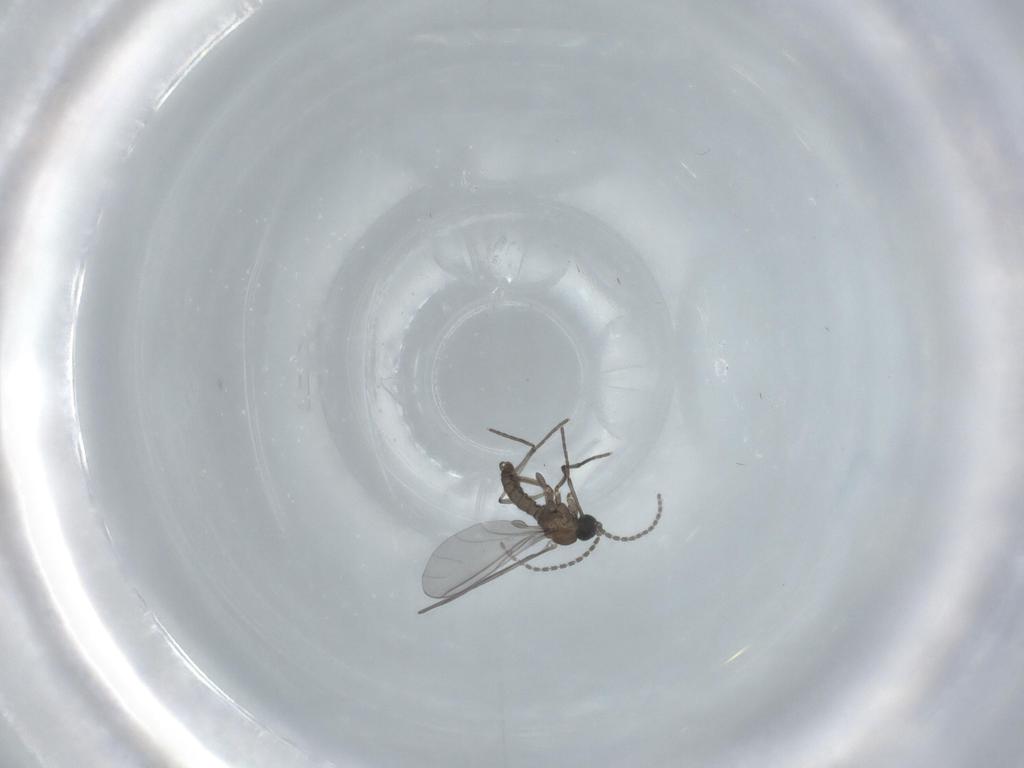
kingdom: Animalia
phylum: Arthropoda
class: Insecta
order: Diptera
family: Sciaridae
